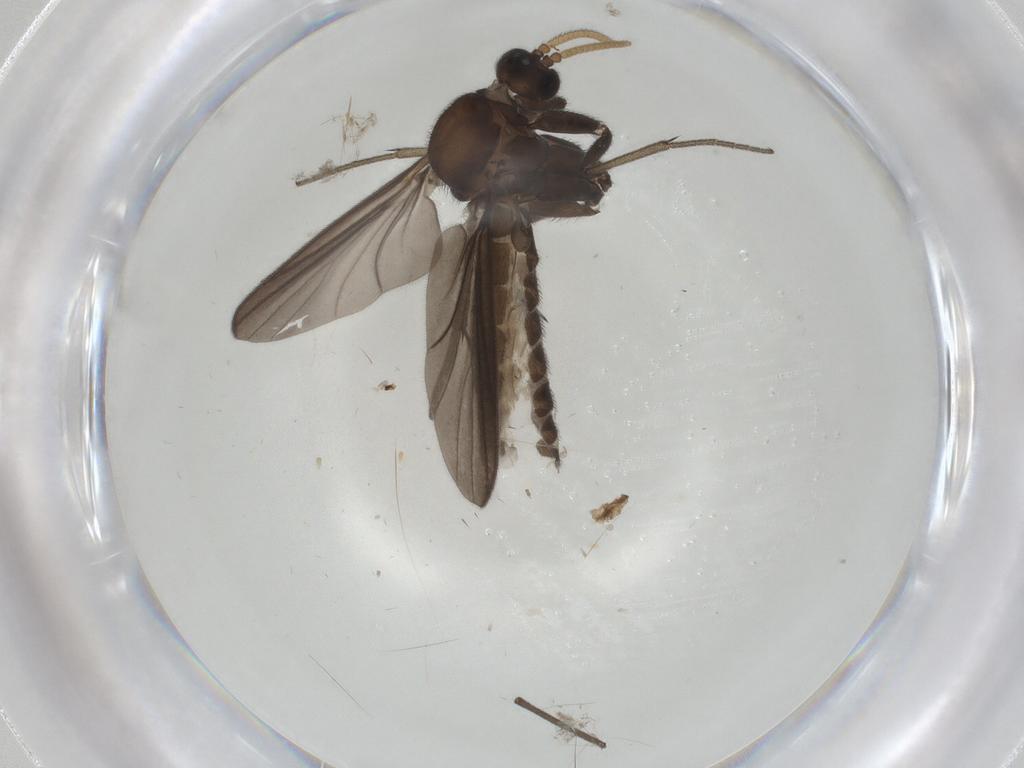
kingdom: Animalia
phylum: Arthropoda
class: Insecta
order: Diptera
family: Mycetophilidae
